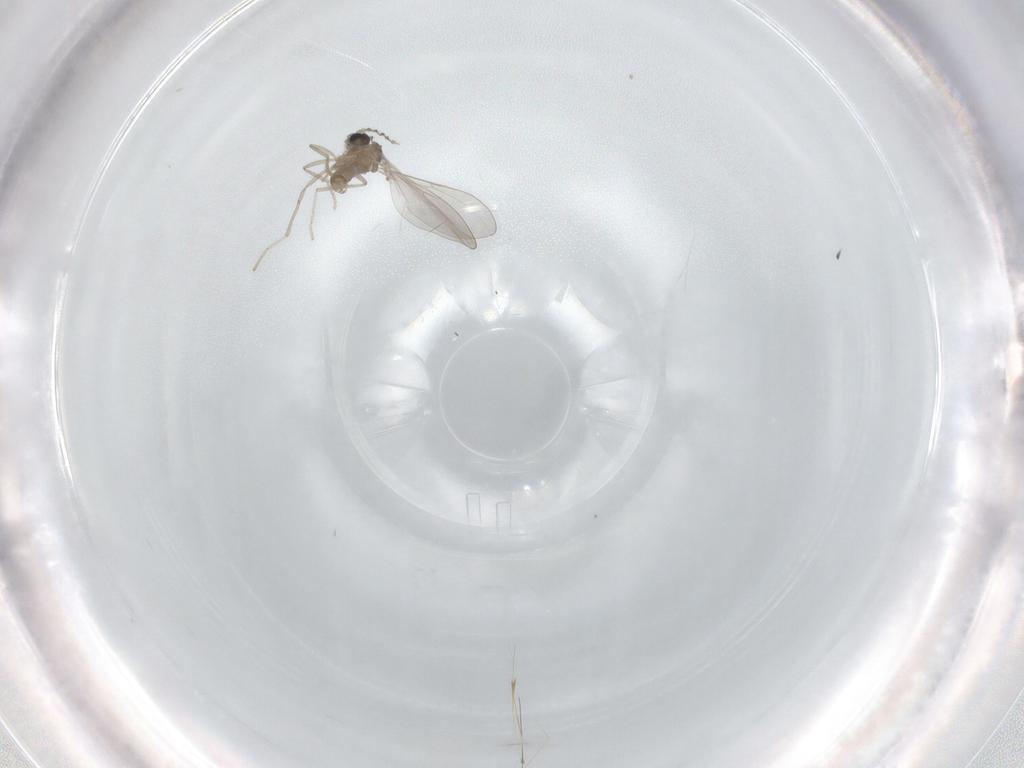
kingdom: Animalia
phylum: Arthropoda
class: Insecta
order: Diptera
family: Cecidomyiidae
